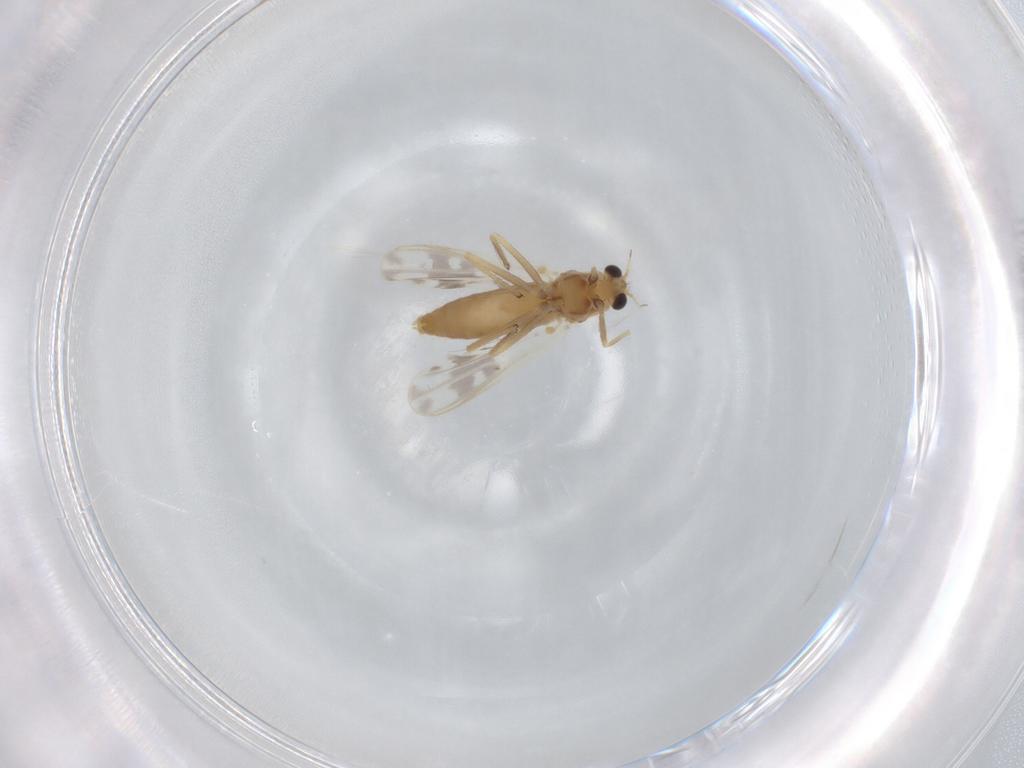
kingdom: Animalia
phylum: Arthropoda
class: Insecta
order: Diptera
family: Chironomidae
